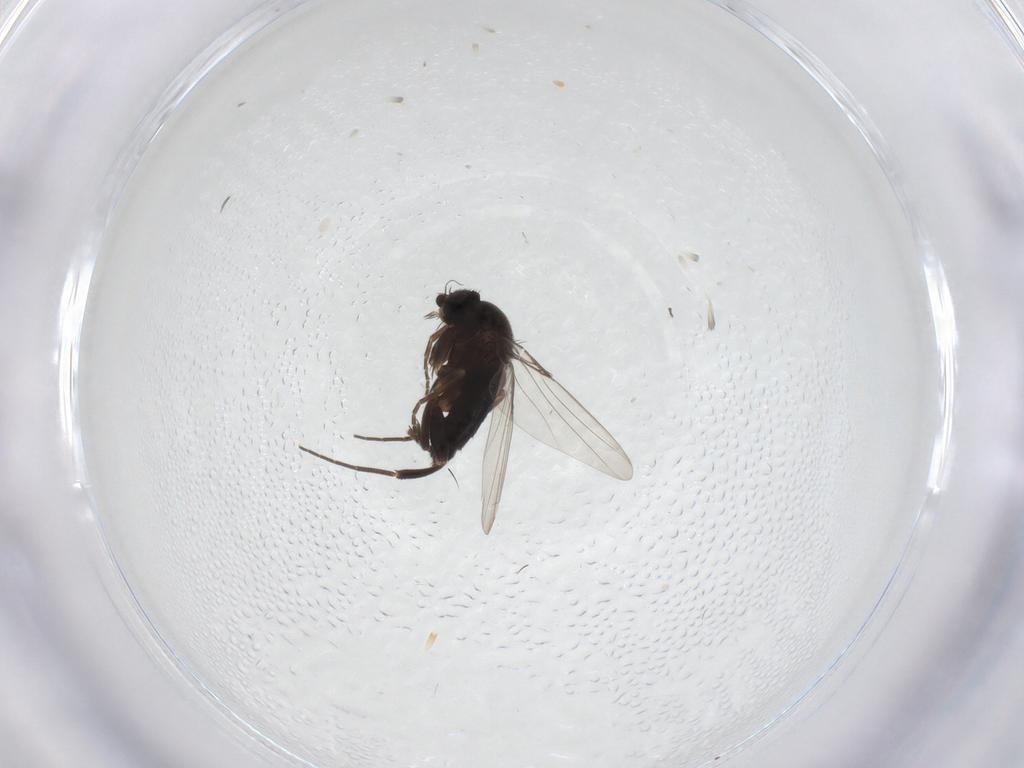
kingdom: Animalia
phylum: Arthropoda
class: Insecta
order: Diptera
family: Phoridae
